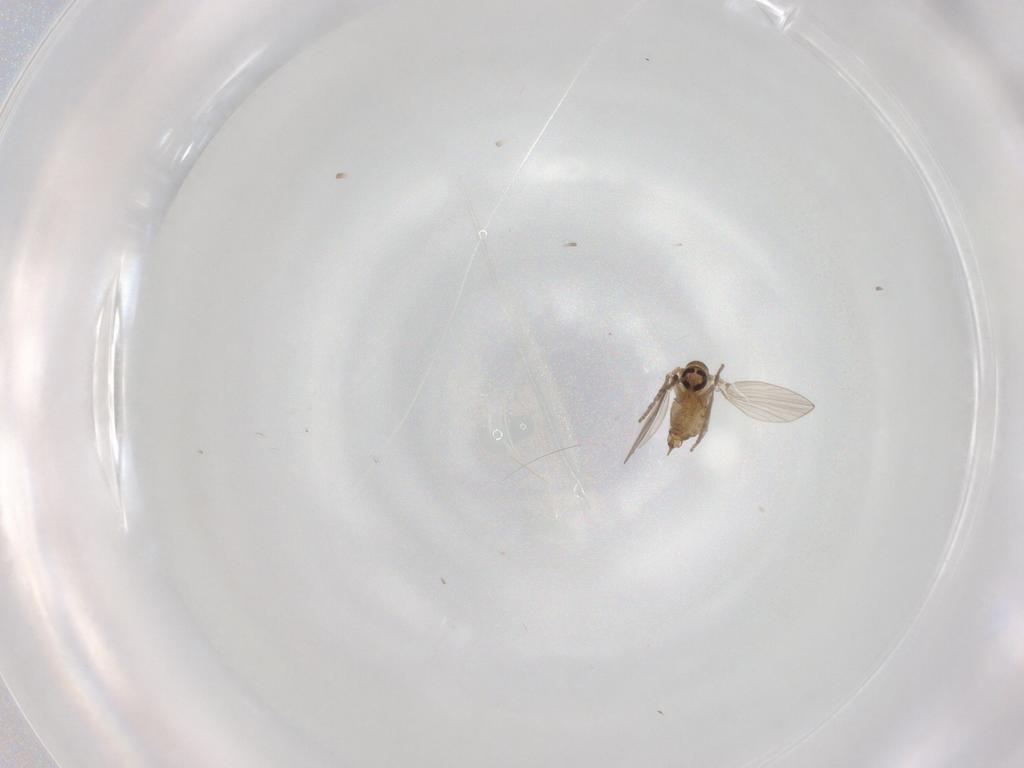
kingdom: Animalia
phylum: Arthropoda
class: Insecta
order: Diptera
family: Psychodidae
